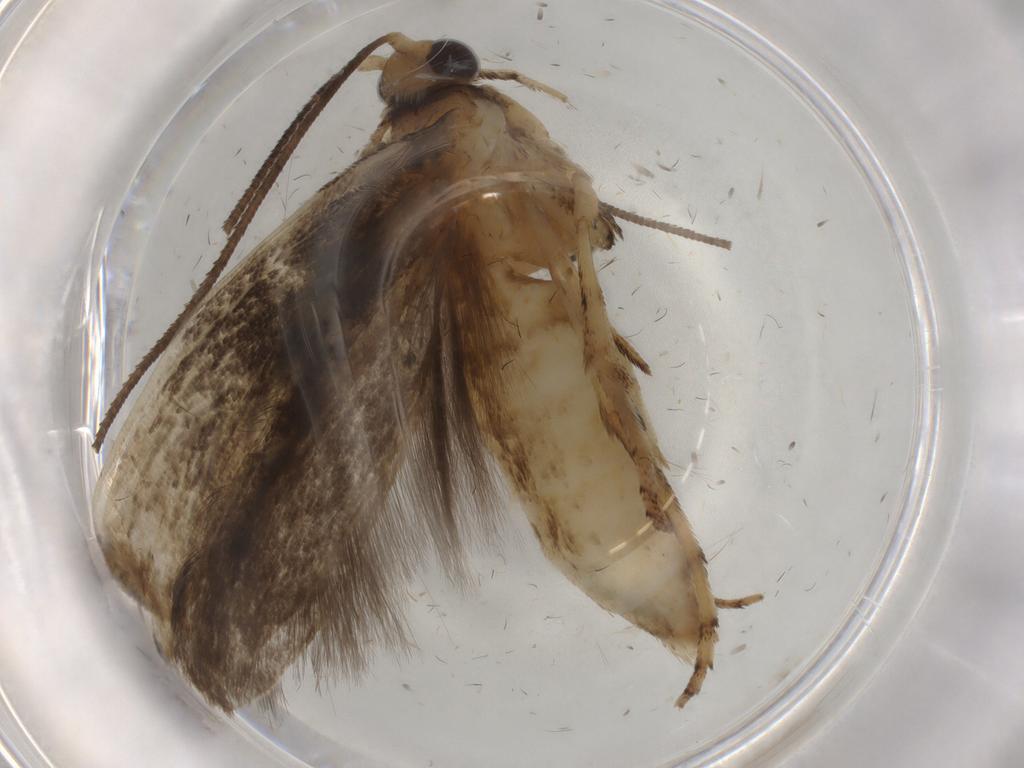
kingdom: Animalia
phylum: Arthropoda
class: Insecta
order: Lepidoptera
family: Yponomeutidae
